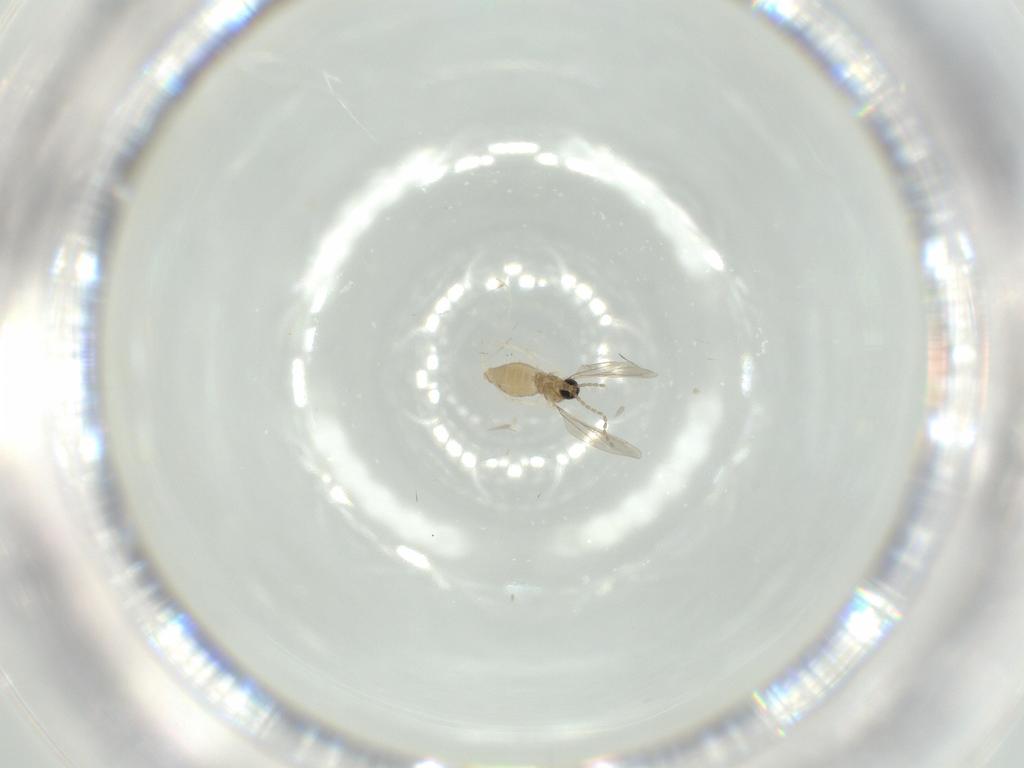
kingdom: Animalia
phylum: Arthropoda
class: Insecta
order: Diptera
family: Cecidomyiidae
